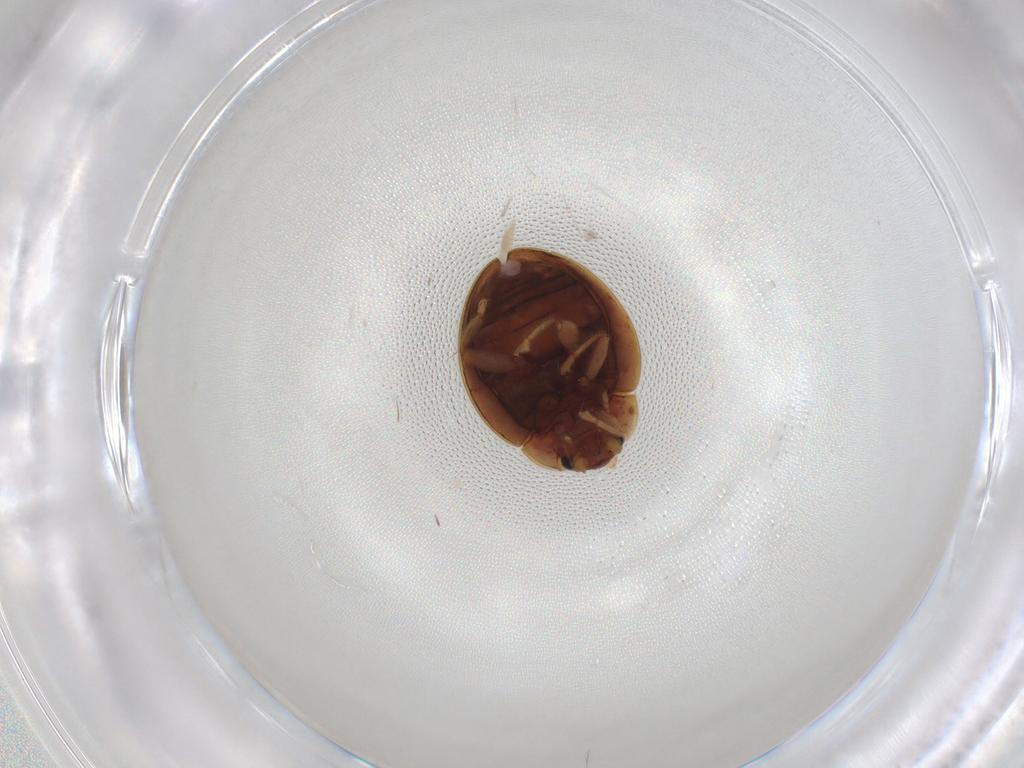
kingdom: Animalia
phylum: Arthropoda
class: Insecta
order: Coleoptera
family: Coccinellidae
